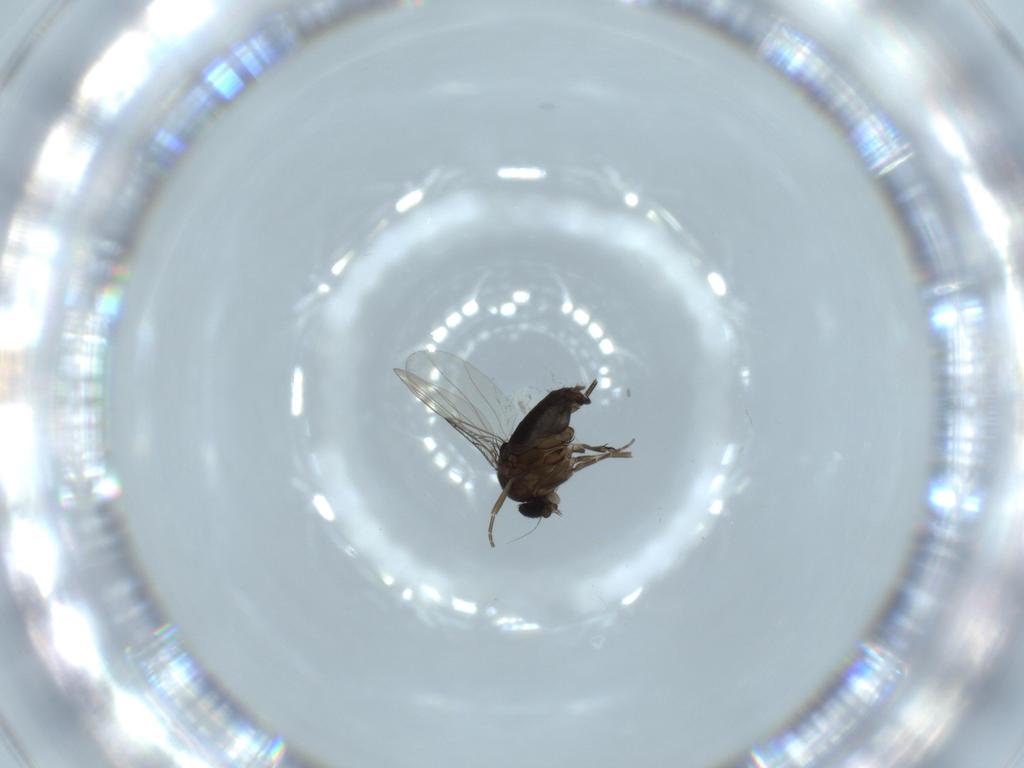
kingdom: Animalia
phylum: Arthropoda
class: Insecta
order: Diptera
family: Phoridae
